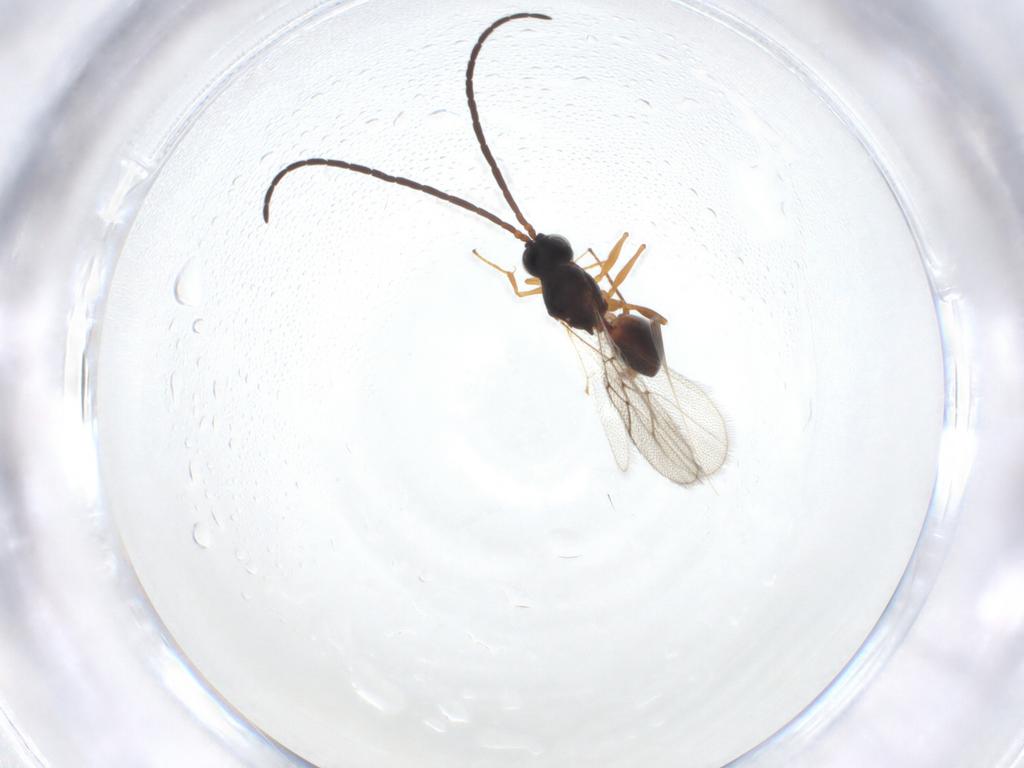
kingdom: Animalia
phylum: Arthropoda
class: Insecta
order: Hymenoptera
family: Figitidae
